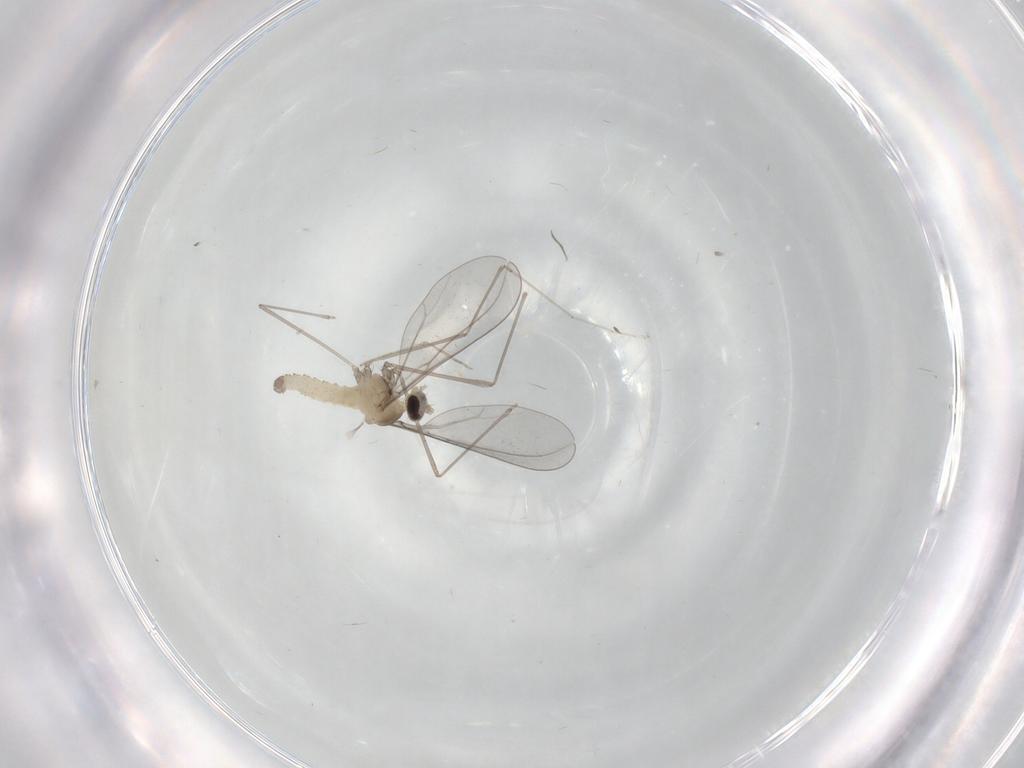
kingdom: Animalia
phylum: Arthropoda
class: Insecta
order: Diptera
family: Cecidomyiidae
